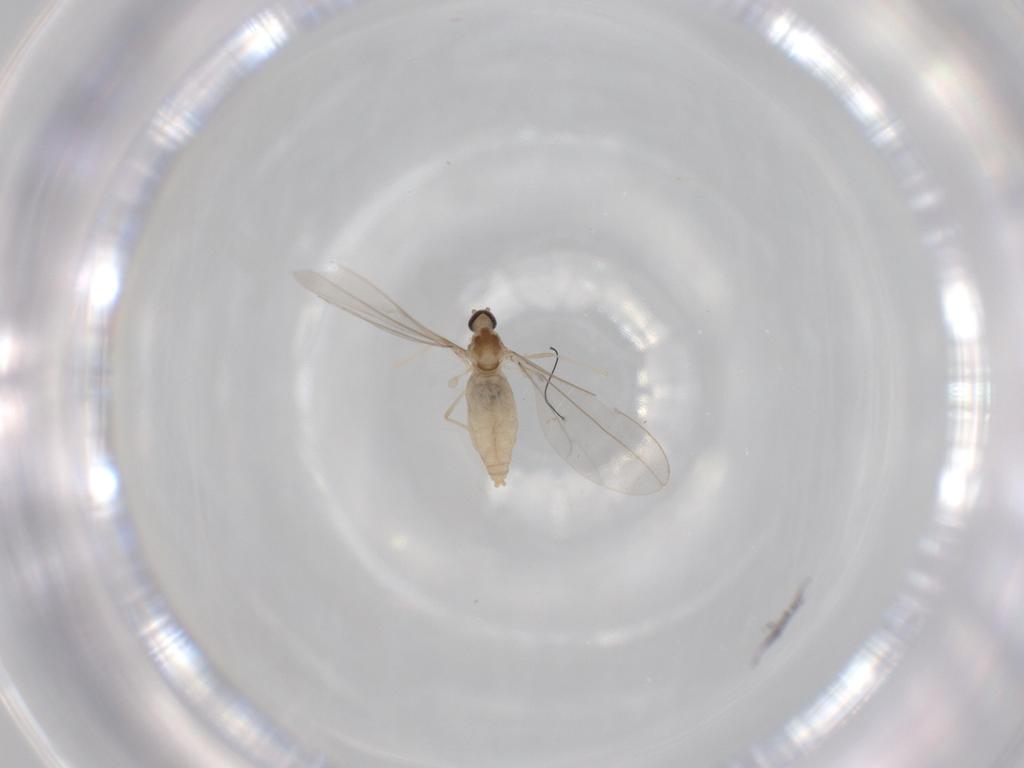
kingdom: Animalia
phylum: Arthropoda
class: Insecta
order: Diptera
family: Cecidomyiidae
